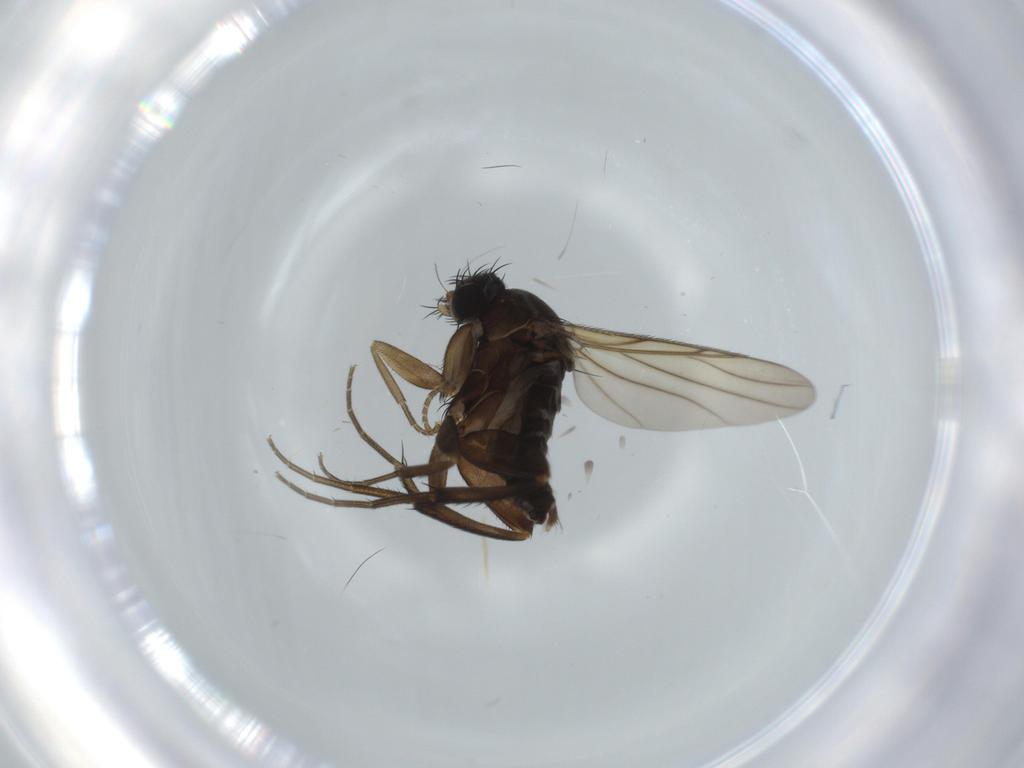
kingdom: Animalia
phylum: Arthropoda
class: Insecta
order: Diptera
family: Phoridae
